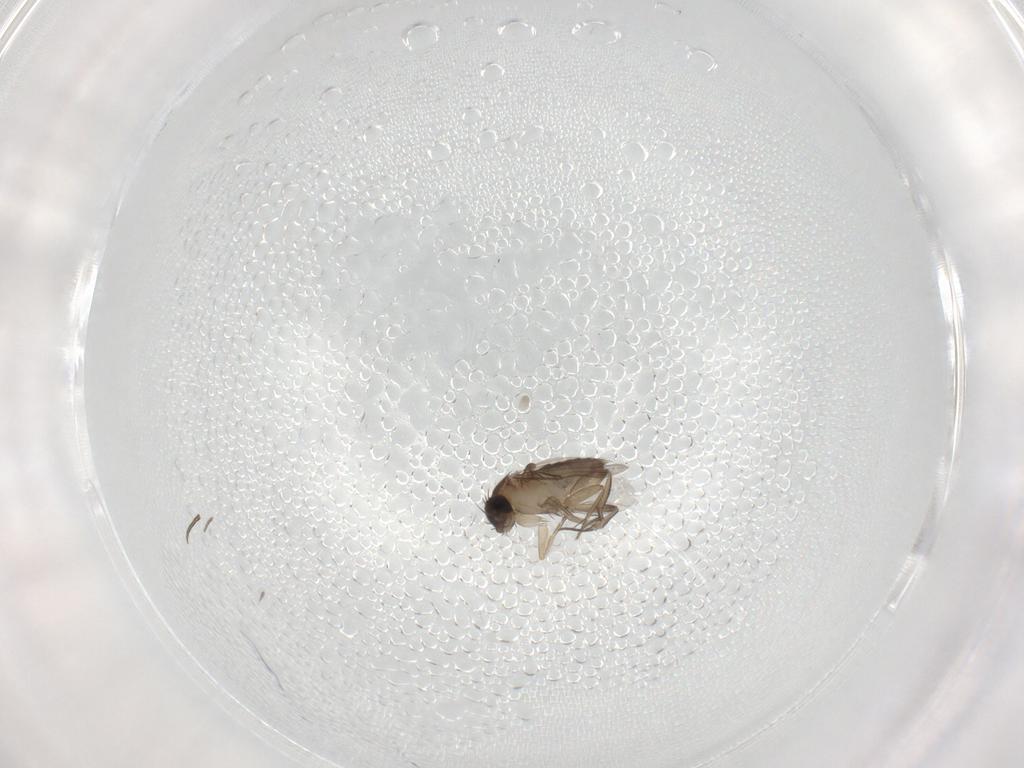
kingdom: Animalia
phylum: Arthropoda
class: Insecta
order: Diptera
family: Phoridae
